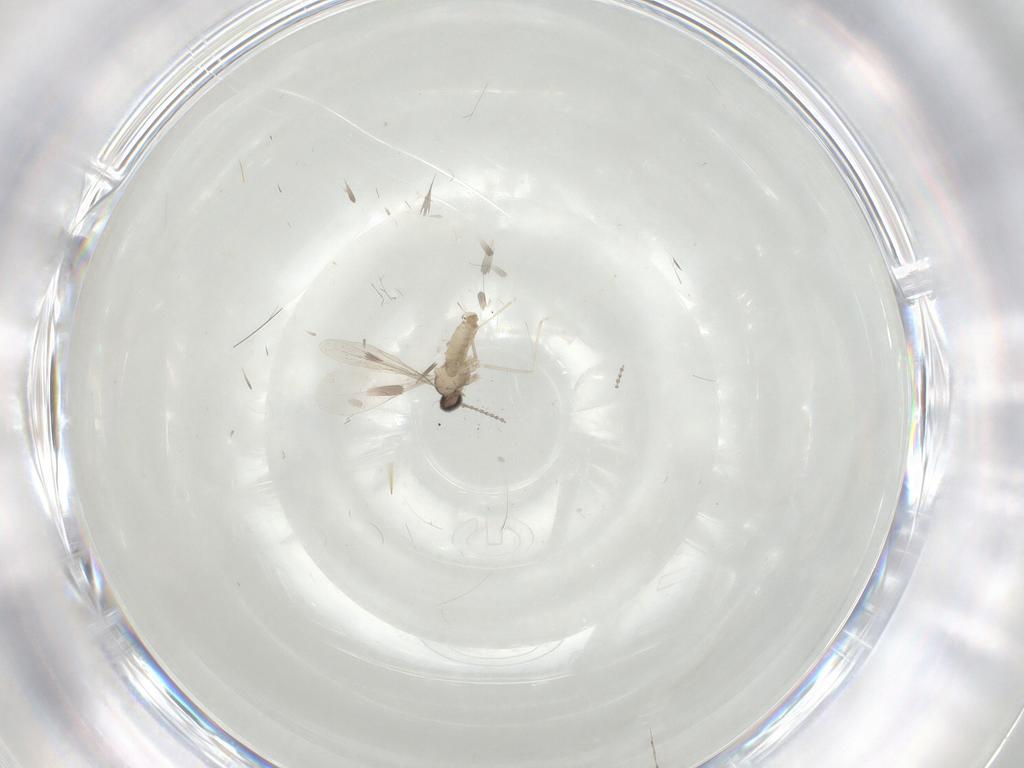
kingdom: Animalia
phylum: Arthropoda
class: Insecta
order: Diptera
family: Cecidomyiidae
